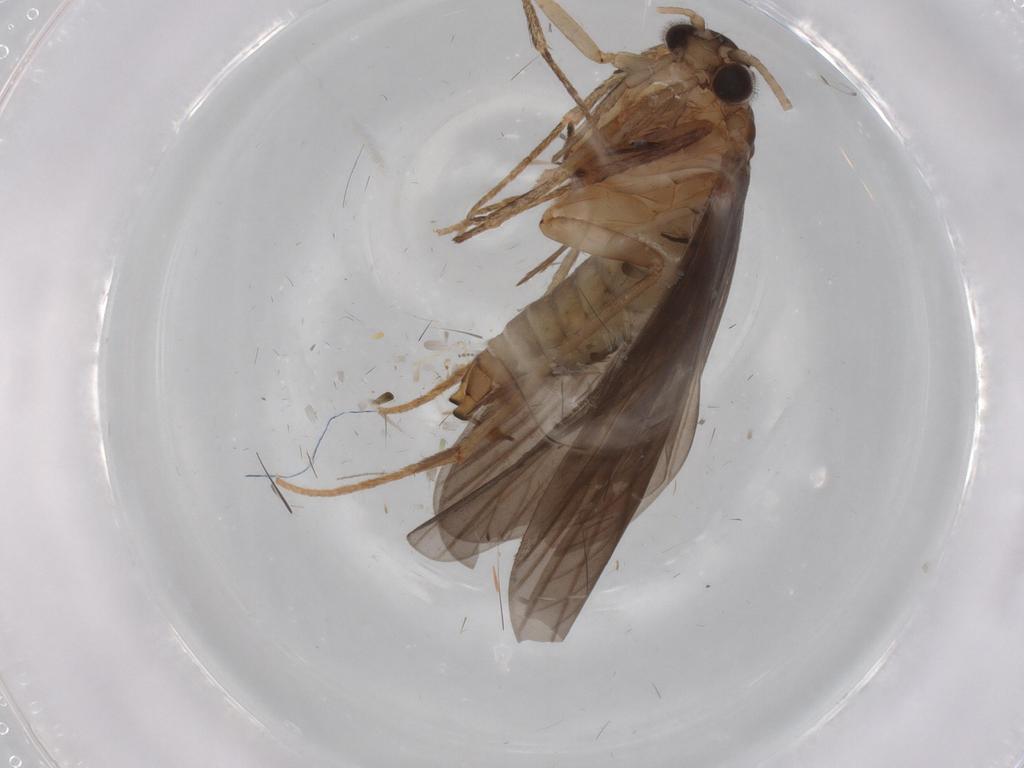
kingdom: Animalia
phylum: Arthropoda
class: Insecta
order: Trichoptera
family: Philopotamidae
